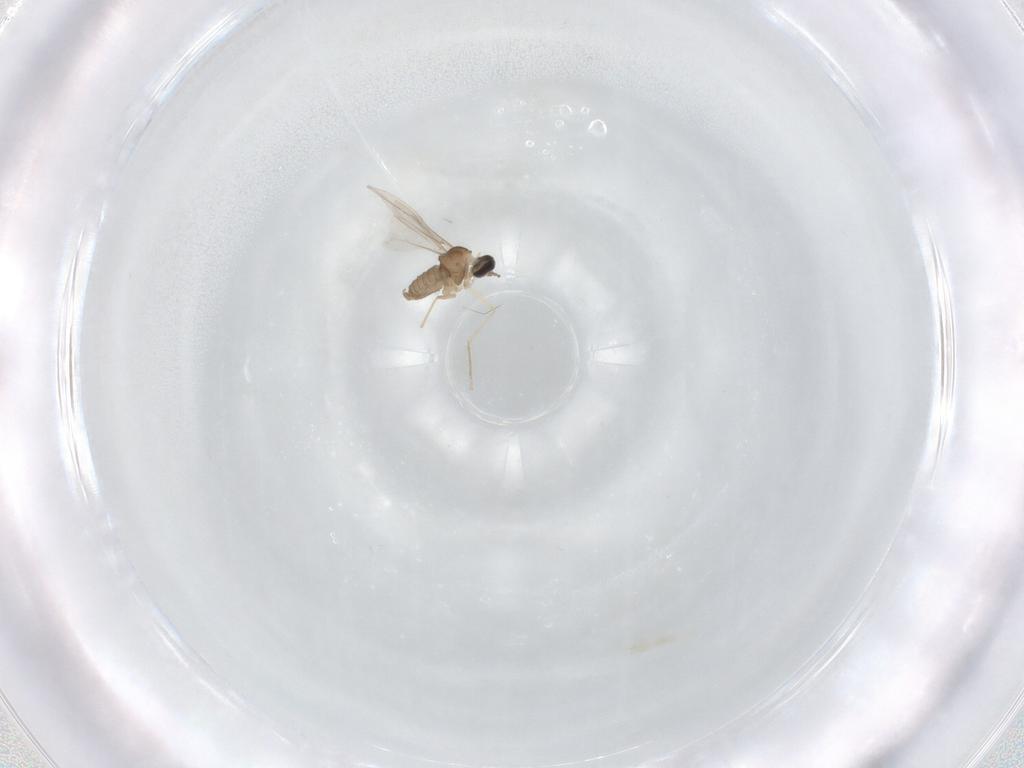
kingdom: Animalia
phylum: Arthropoda
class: Insecta
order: Diptera
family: Cecidomyiidae
